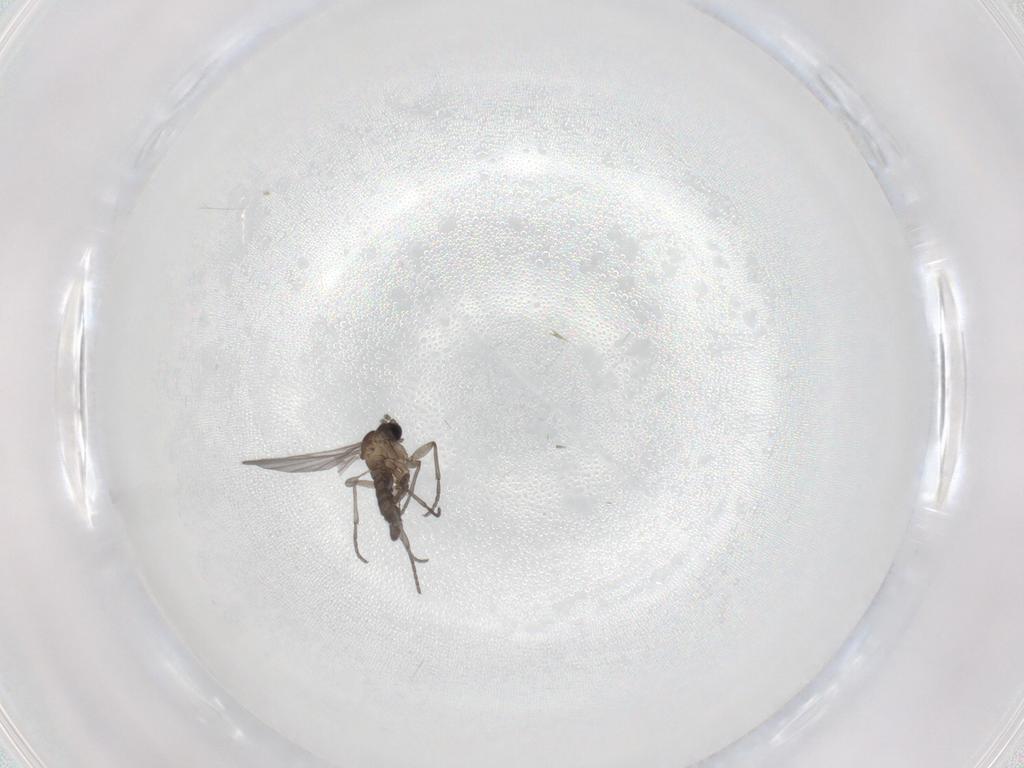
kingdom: Animalia
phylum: Arthropoda
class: Insecta
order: Diptera
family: Sciaridae
